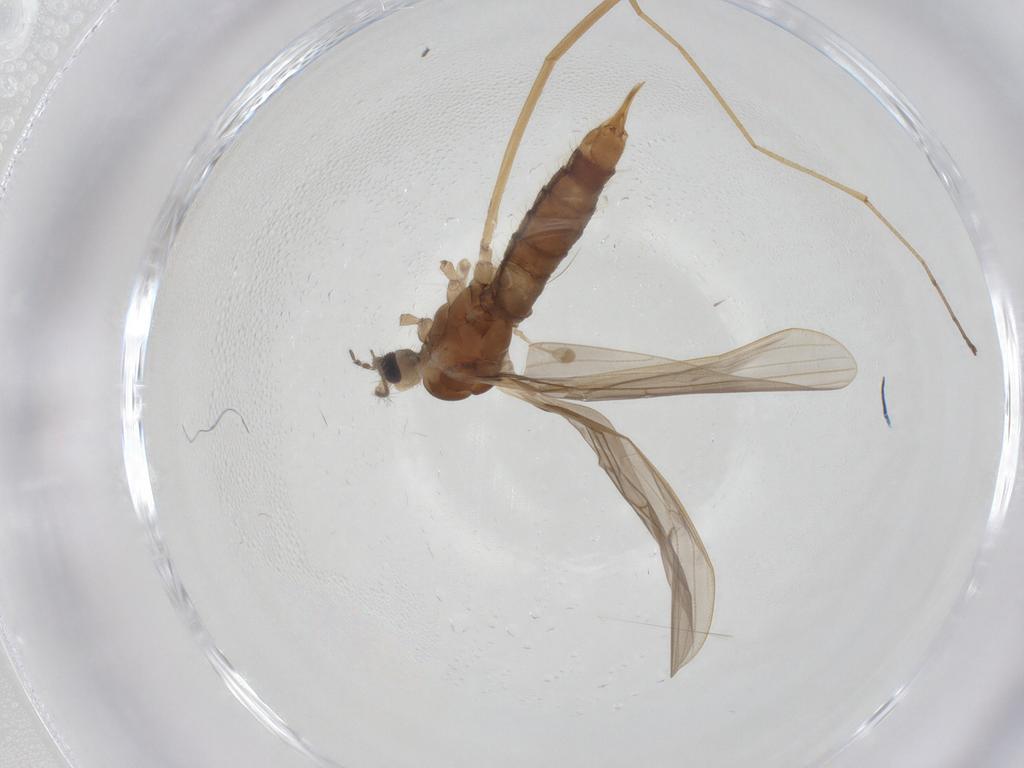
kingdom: Animalia
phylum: Arthropoda
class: Insecta
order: Diptera
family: Limoniidae
